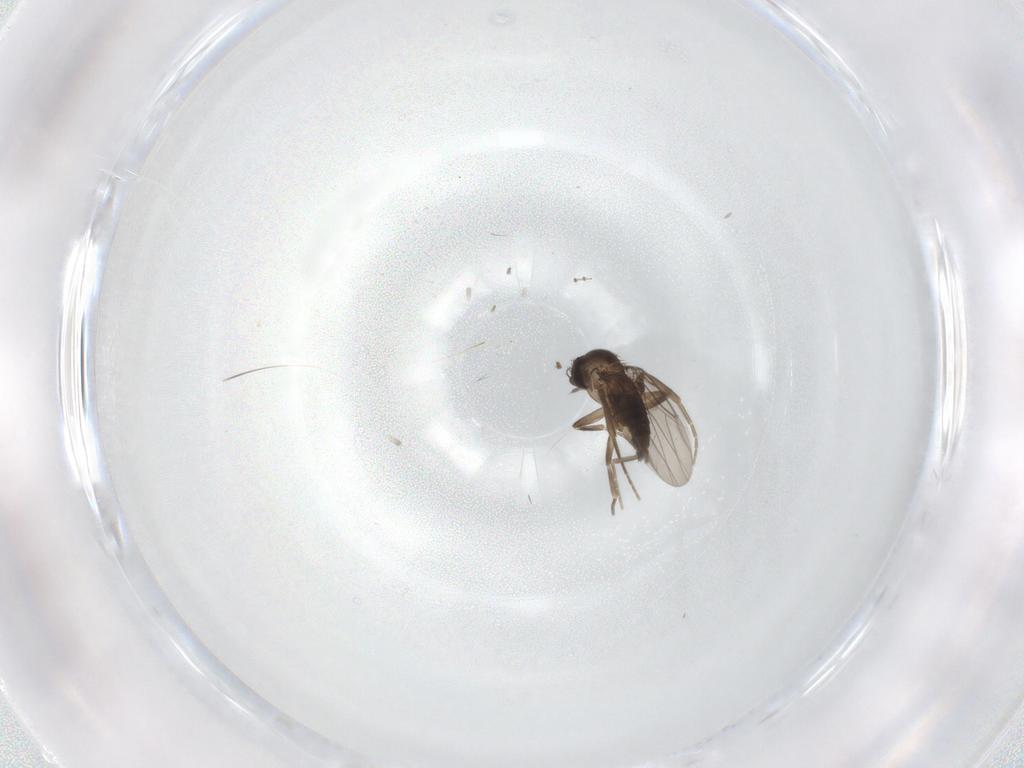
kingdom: Animalia
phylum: Arthropoda
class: Insecta
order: Diptera
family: Phoridae
